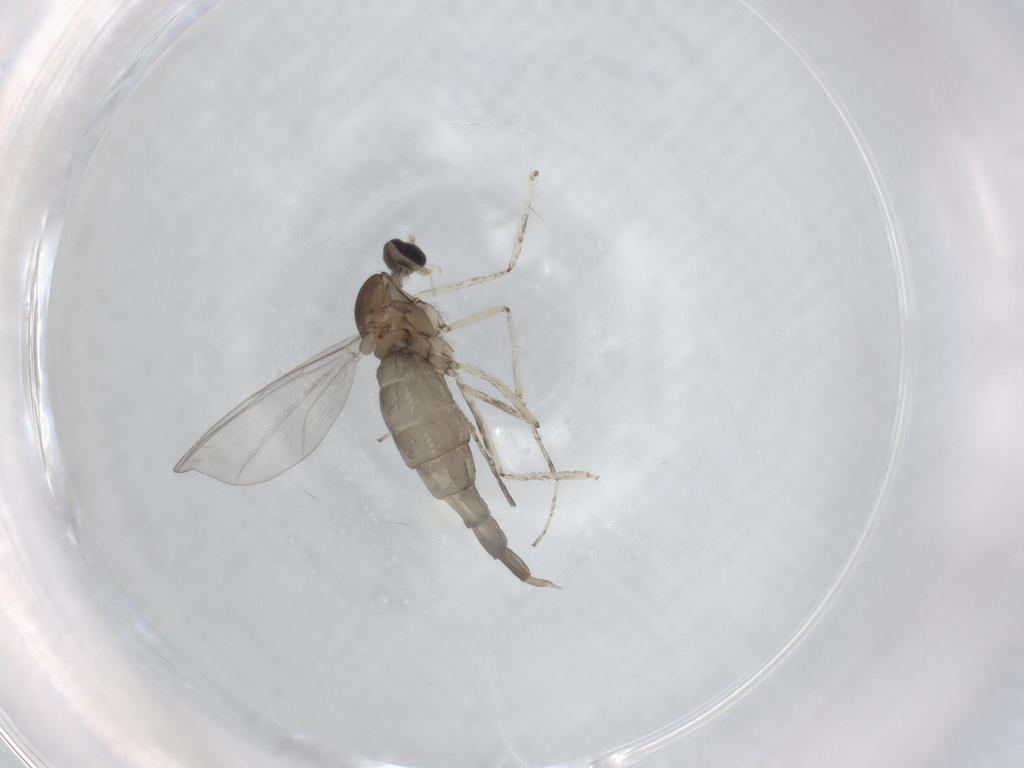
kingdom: Animalia
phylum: Arthropoda
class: Insecta
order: Diptera
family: Cecidomyiidae
